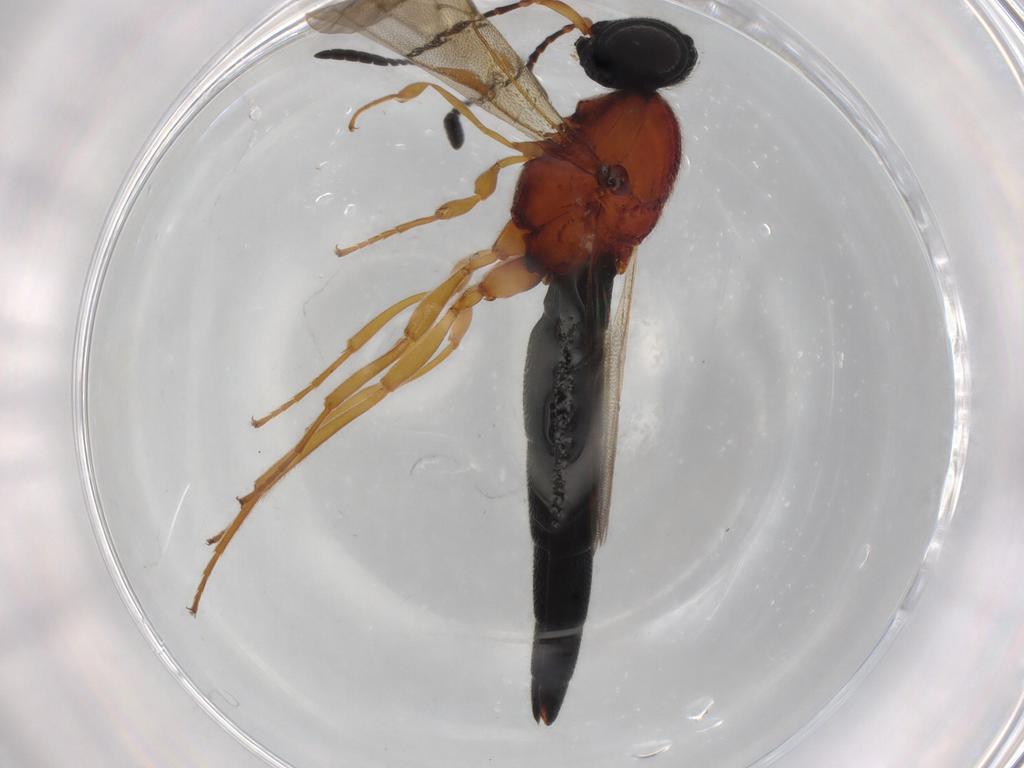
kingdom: Animalia
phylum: Arthropoda
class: Insecta
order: Hymenoptera
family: Scelionidae
